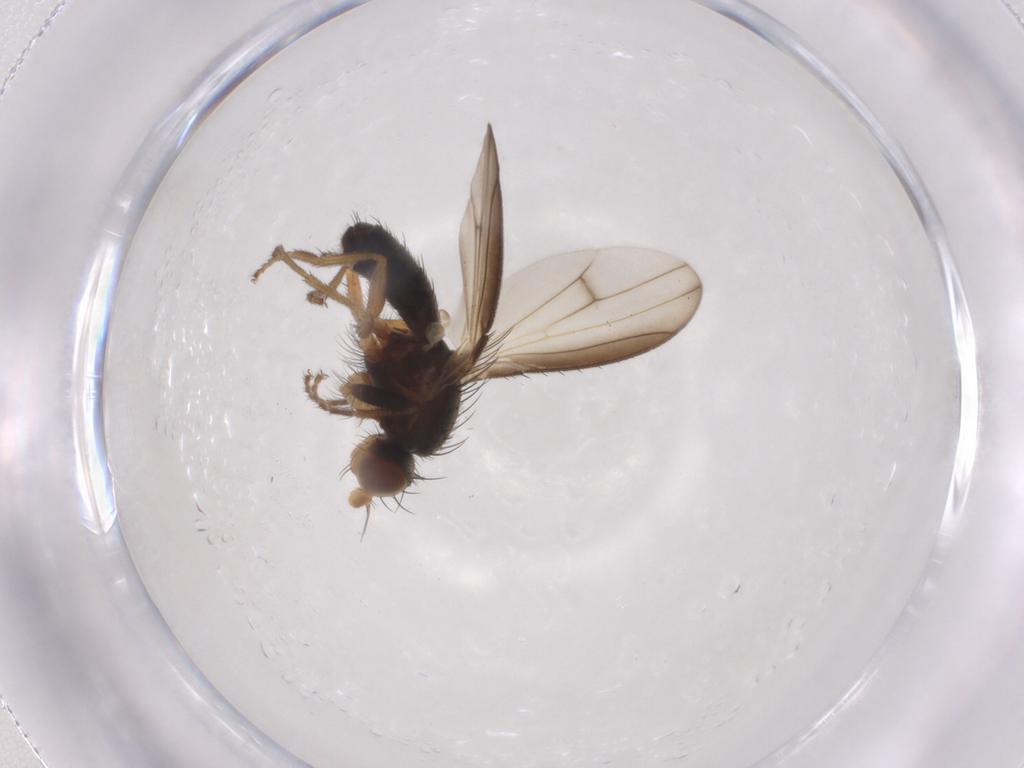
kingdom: Animalia
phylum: Arthropoda
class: Insecta
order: Diptera
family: Heleomyzidae
